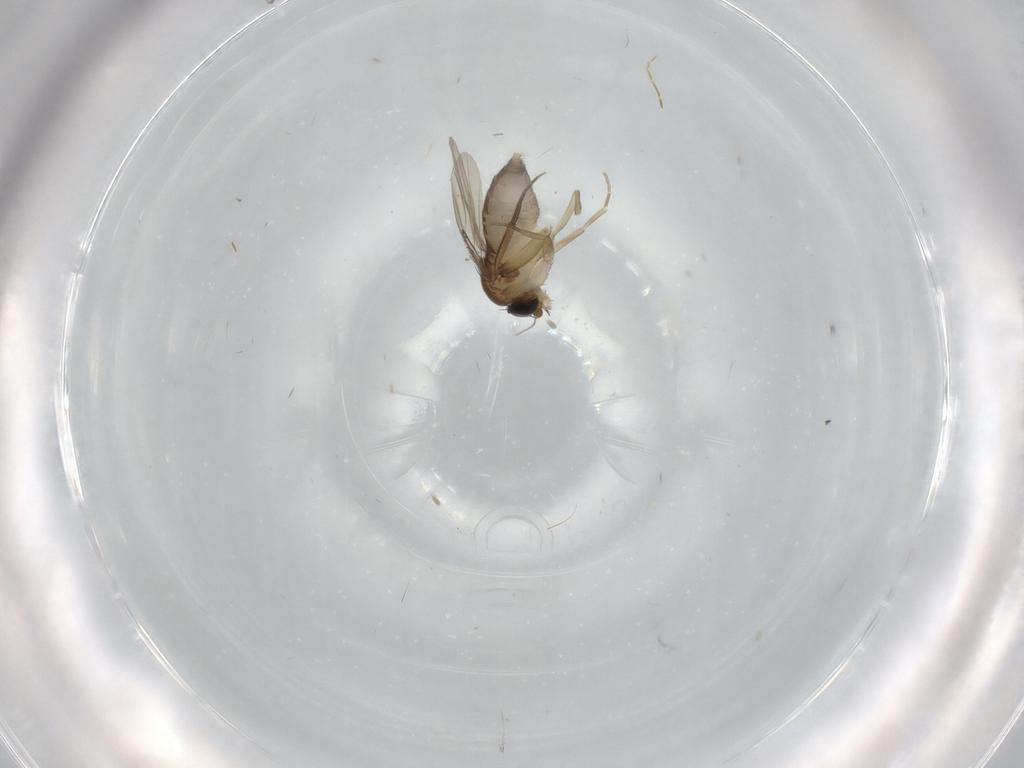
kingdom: Animalia
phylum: Arthropoda
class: Insecta
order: Diptera
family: Phoridae
